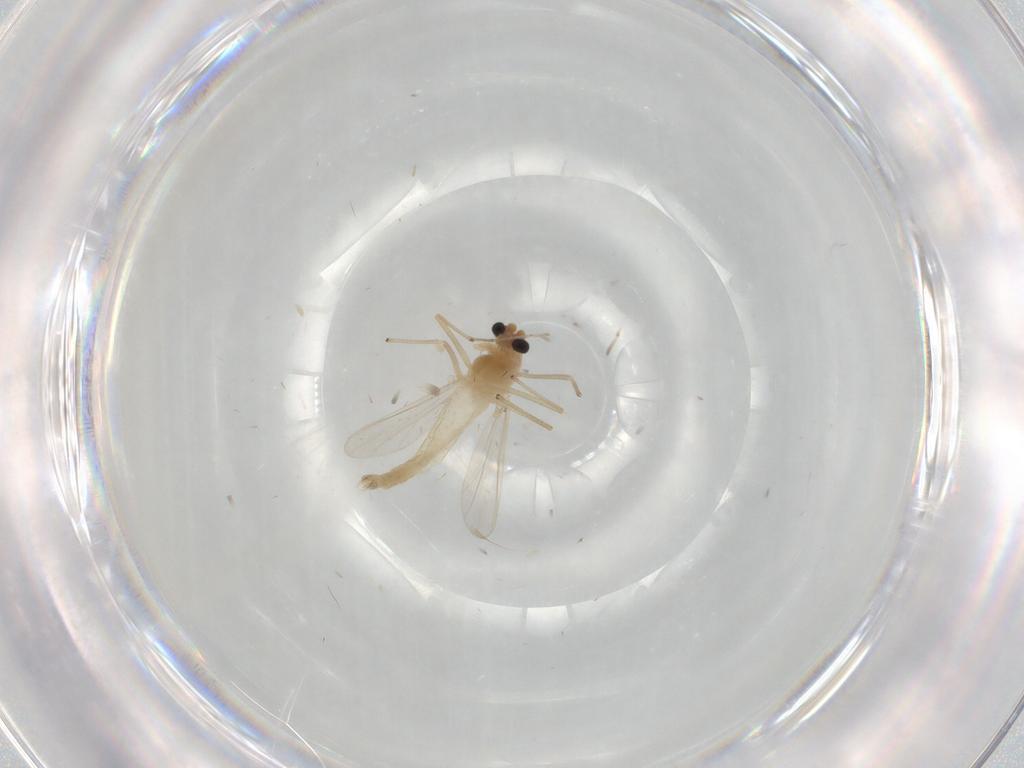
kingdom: Animalia
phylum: Arthropoda
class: Insecta
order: Diptera
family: Chironomidae
